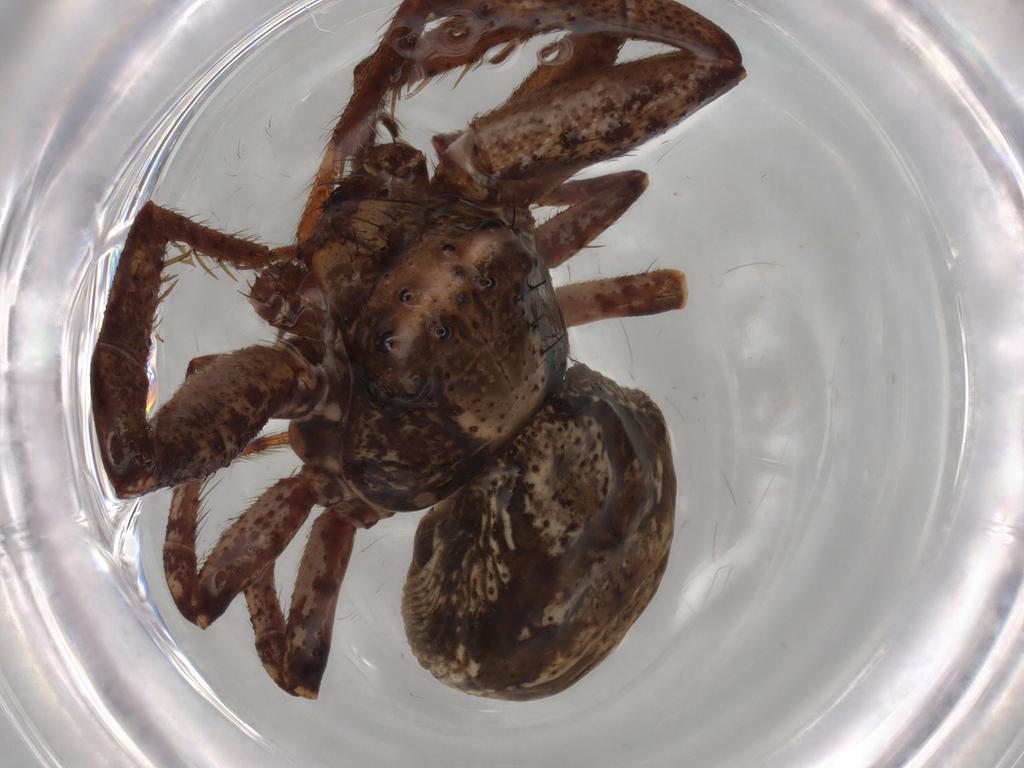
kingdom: Animalia
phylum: Arthropoda
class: Arachnida
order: Araneae
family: Thomisidae
